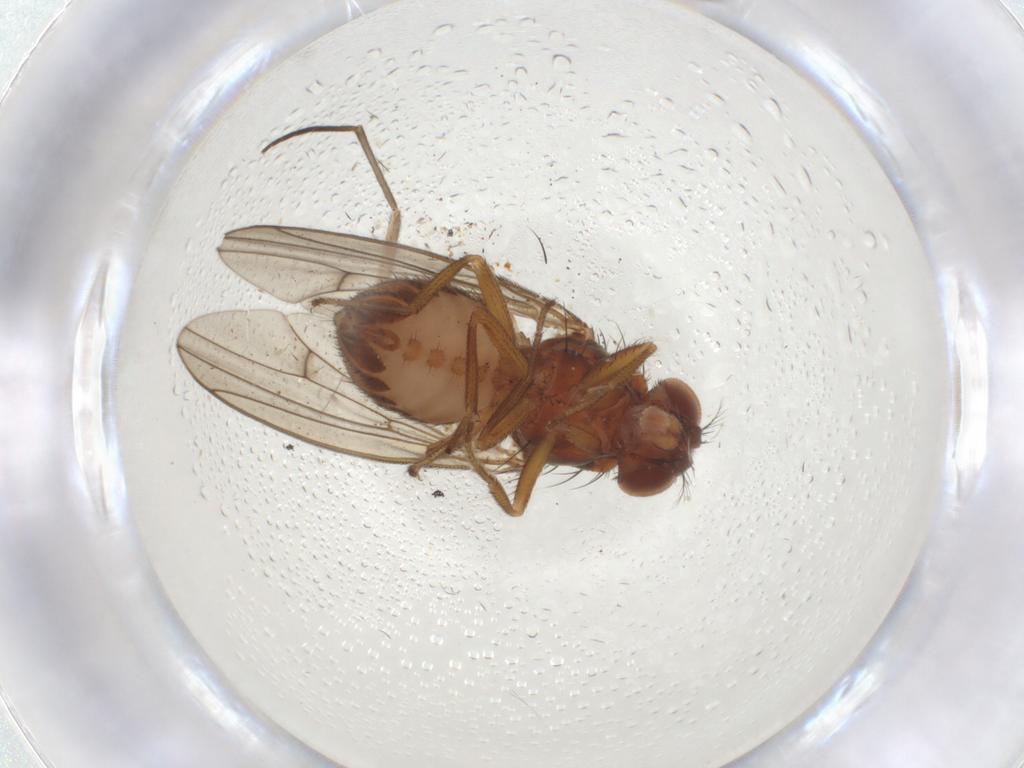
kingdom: Animalia
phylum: Arthropoda
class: Insecta
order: Diptera
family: Drosophilidae
